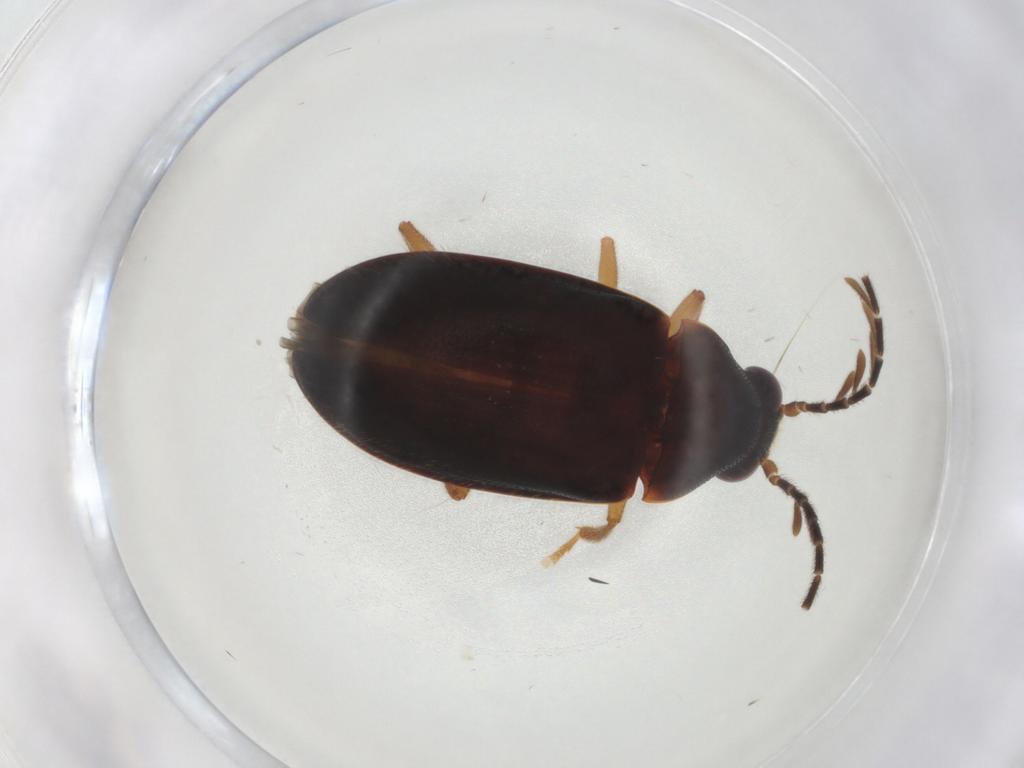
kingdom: Animalia
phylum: Arthropoda
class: Insecta
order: Coleoptera
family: Ptilodactylidae
